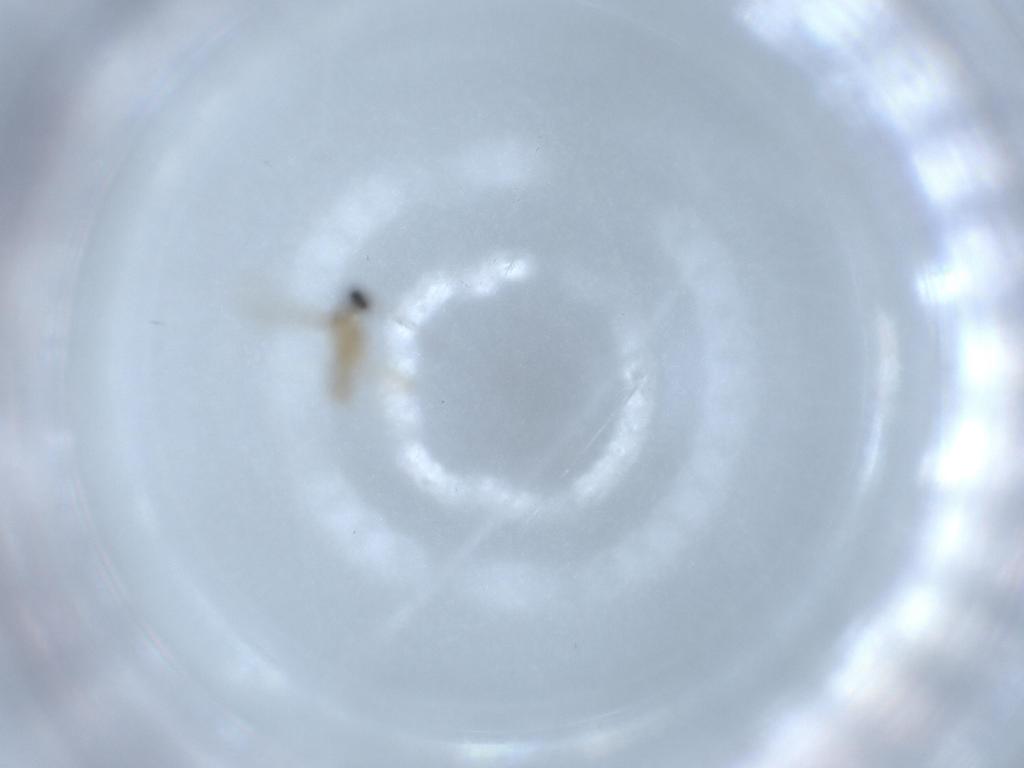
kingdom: Animalia
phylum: Arthropoda
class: Insecta
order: Diptera
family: Cecidomyiidae
